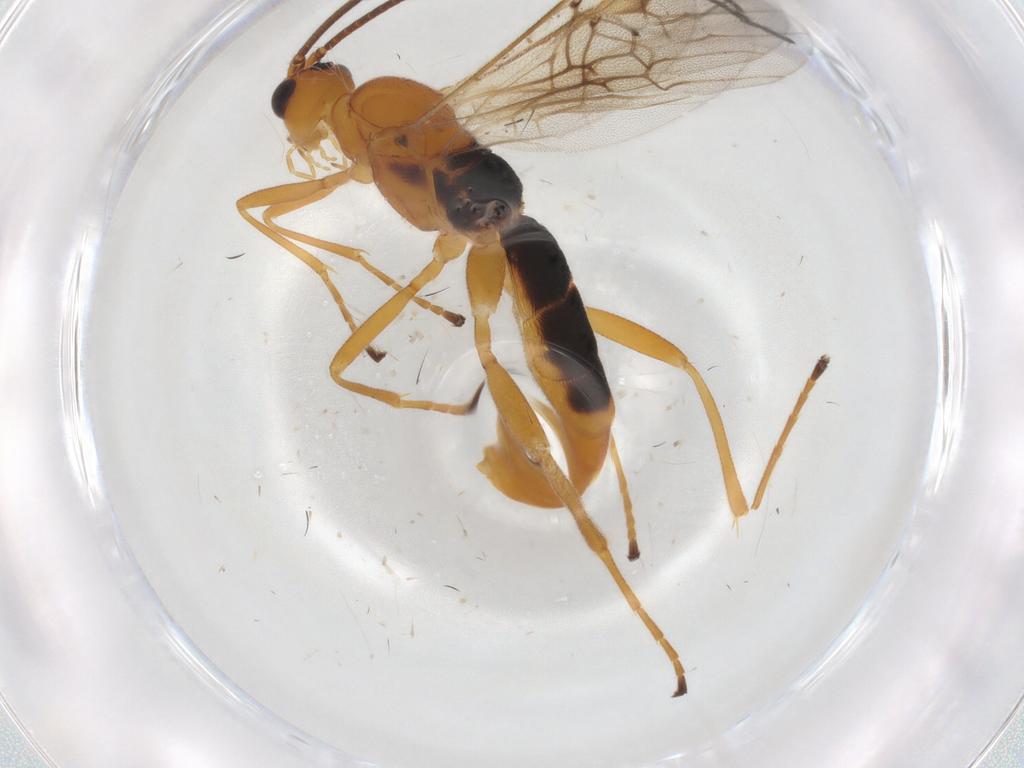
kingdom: Animalia
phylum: Arthropoda
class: Insecta
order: Hymenoptera
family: Braconidae
